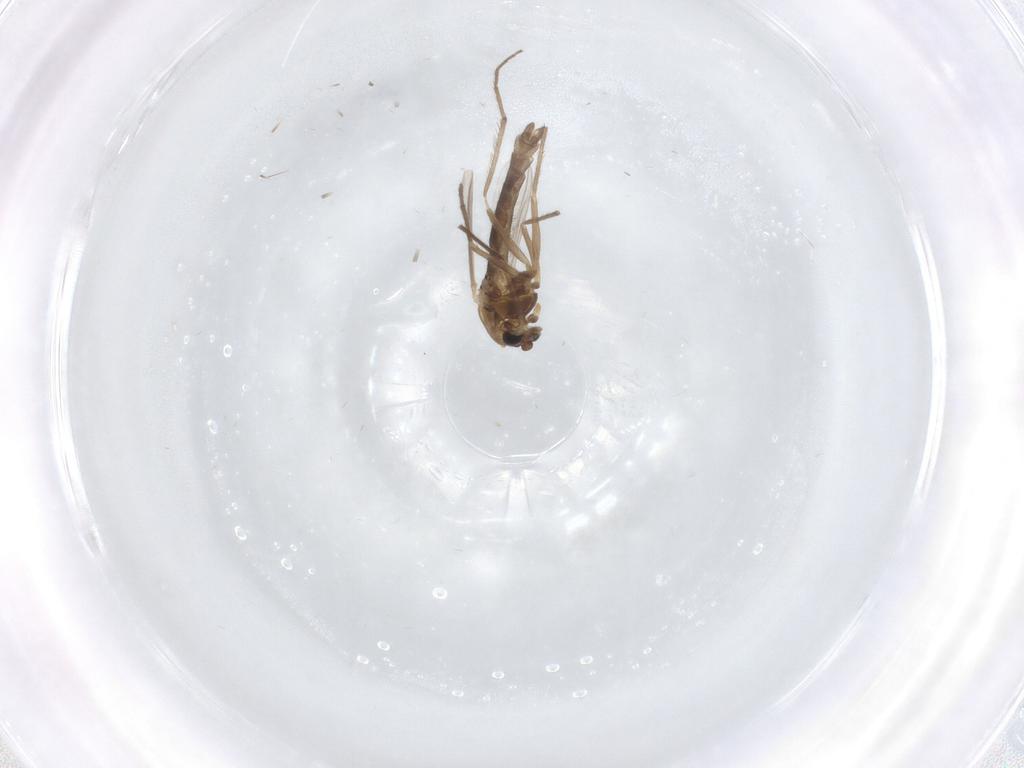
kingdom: Animalia
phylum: Arthropoda
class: Insecta
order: Diptera
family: Chironomidae
